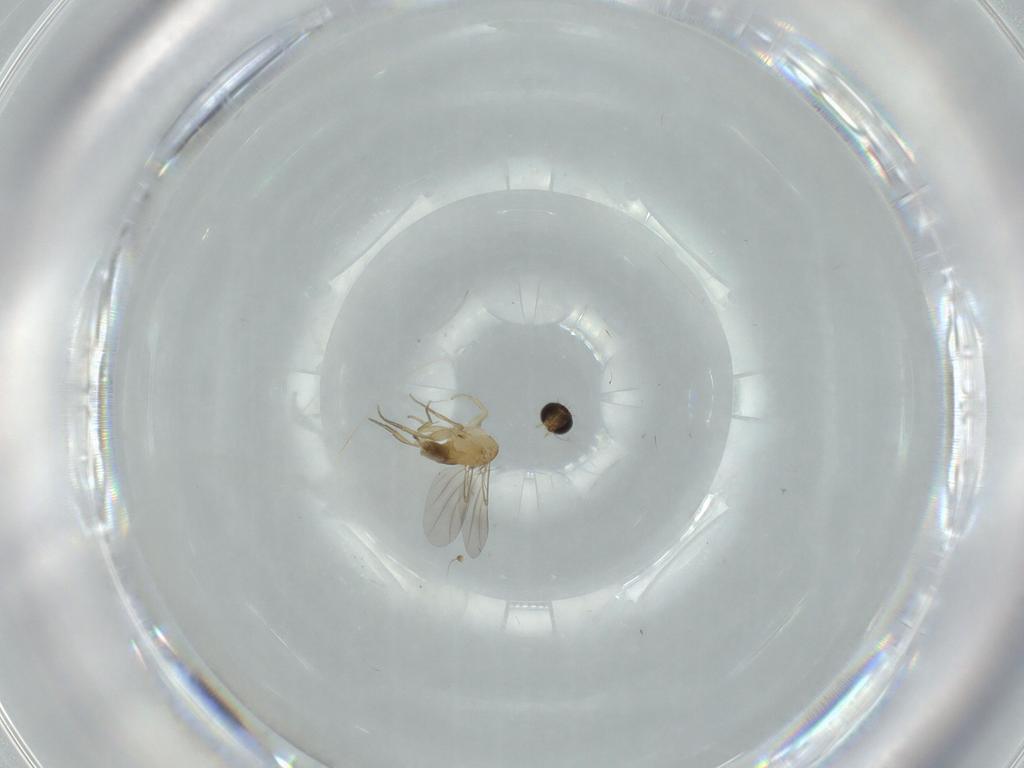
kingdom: Animalia
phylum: Arthropoda
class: Insecta
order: Diptera
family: Phoridae
